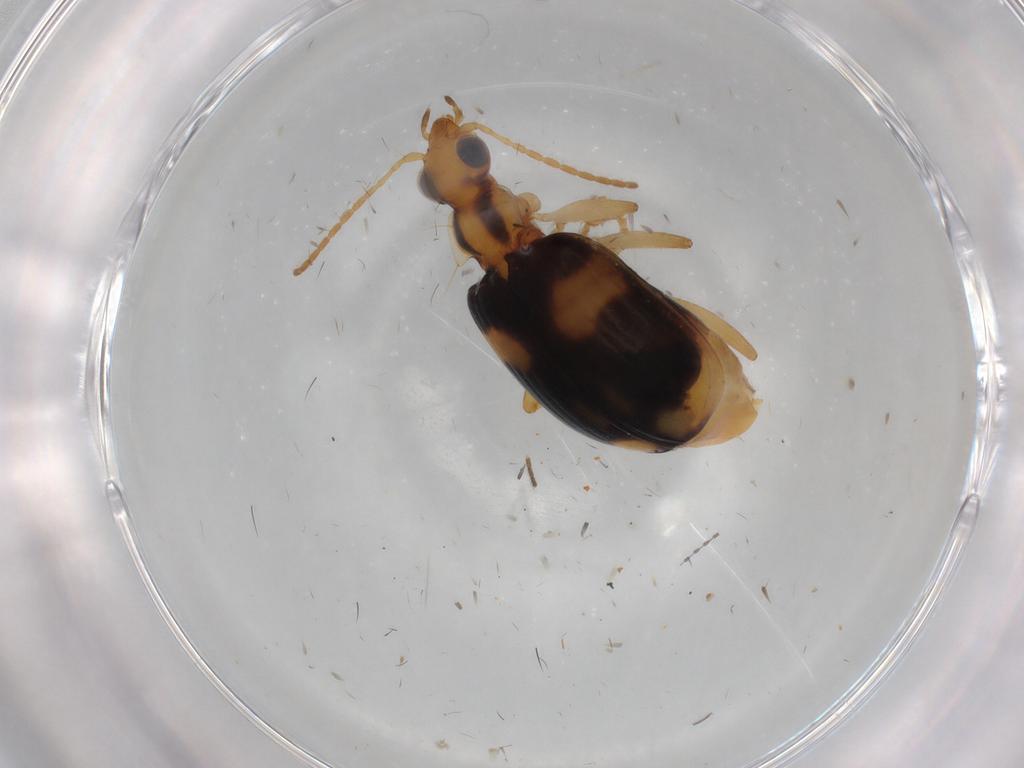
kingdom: Animalia
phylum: Arthropoda
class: Insecta
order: Coleoptera
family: Carabidae
